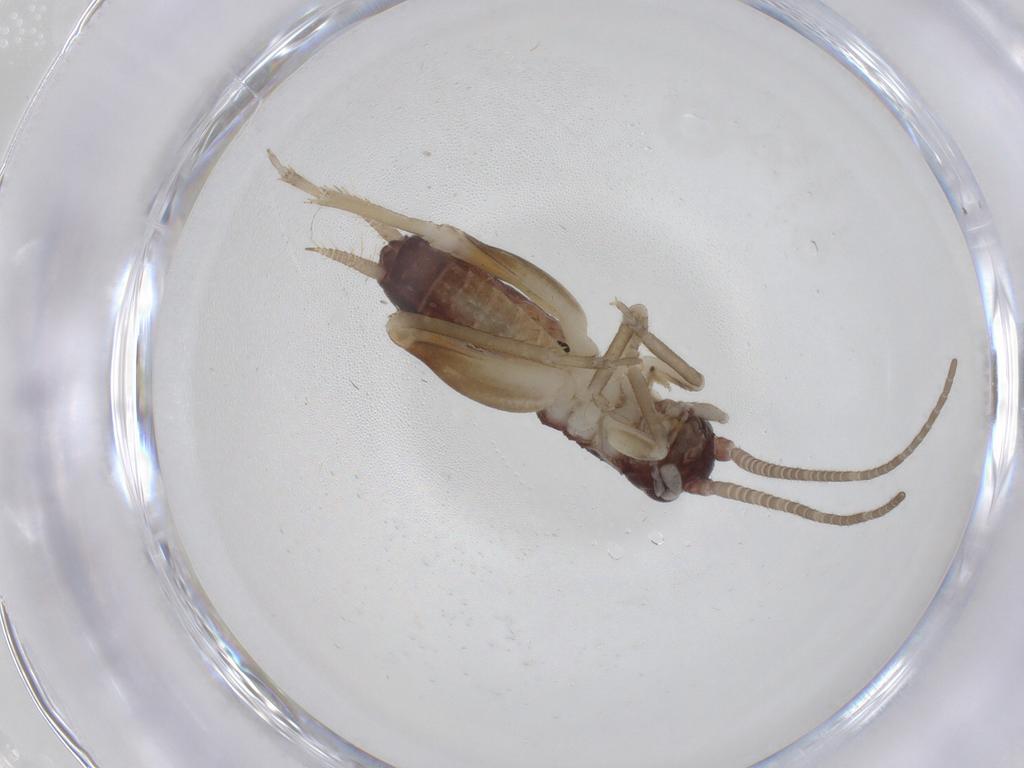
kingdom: Animalia
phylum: Arthropoda
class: Insecta
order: Orthoptera
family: Gryllidae
